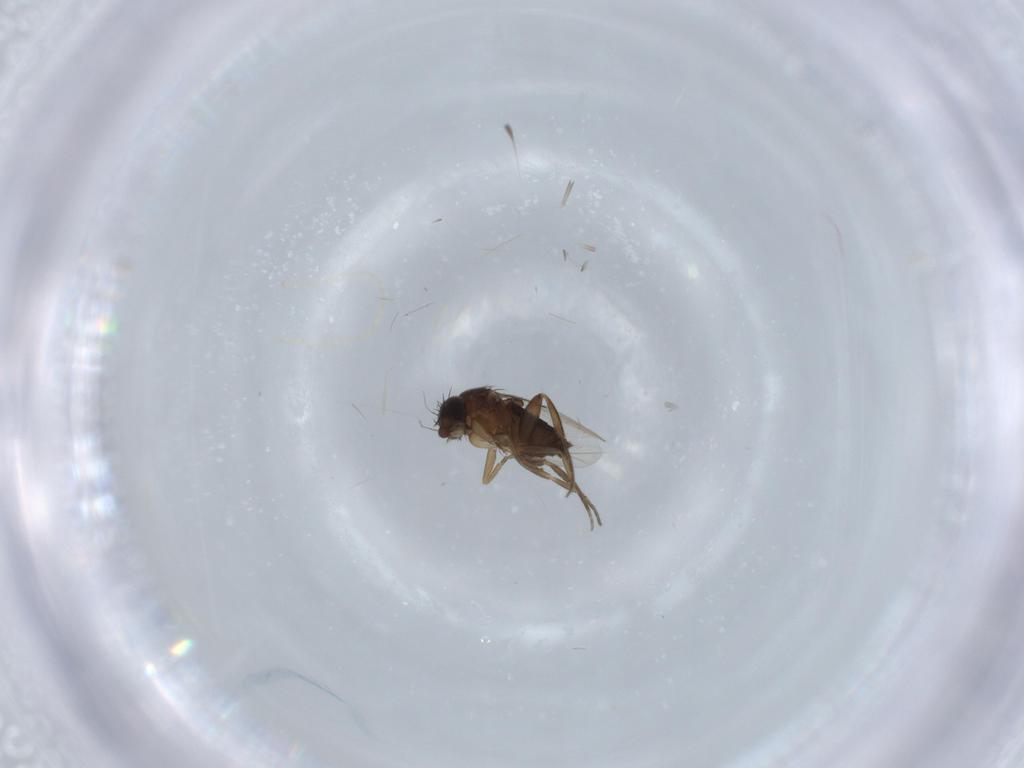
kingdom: Animalia
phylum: Arthropoda
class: Insecta
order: Diptera
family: Phoridae
